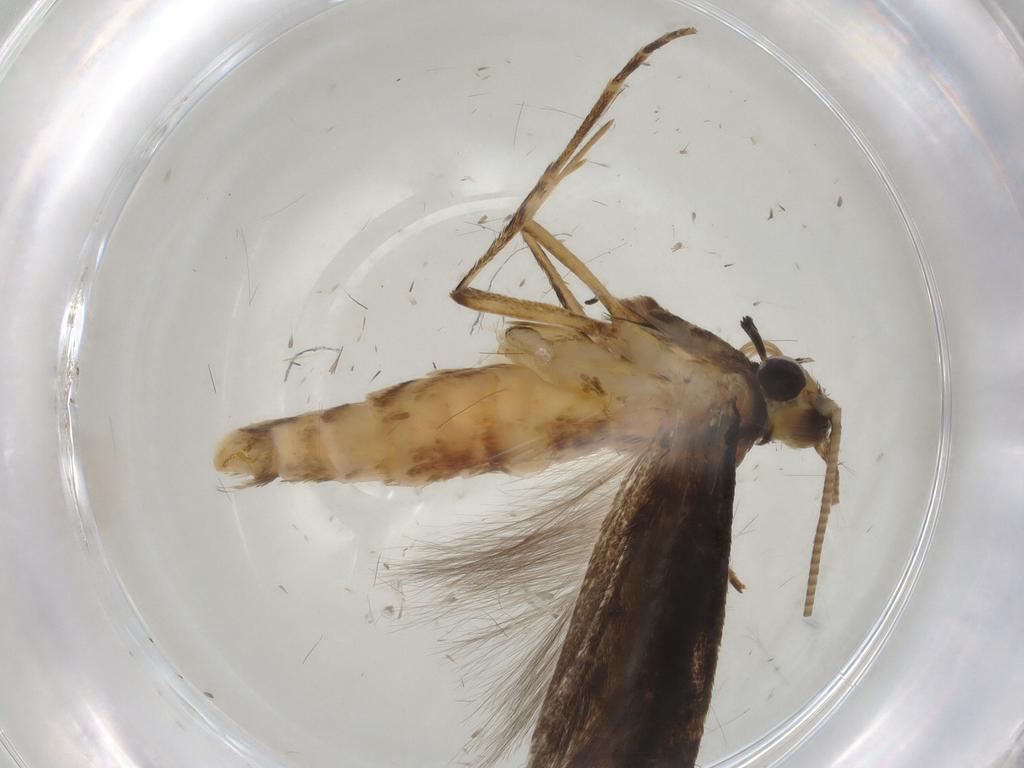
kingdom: Animalia
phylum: Arthropoda
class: Insecta
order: Lepidoptera
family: Gracillariidae
